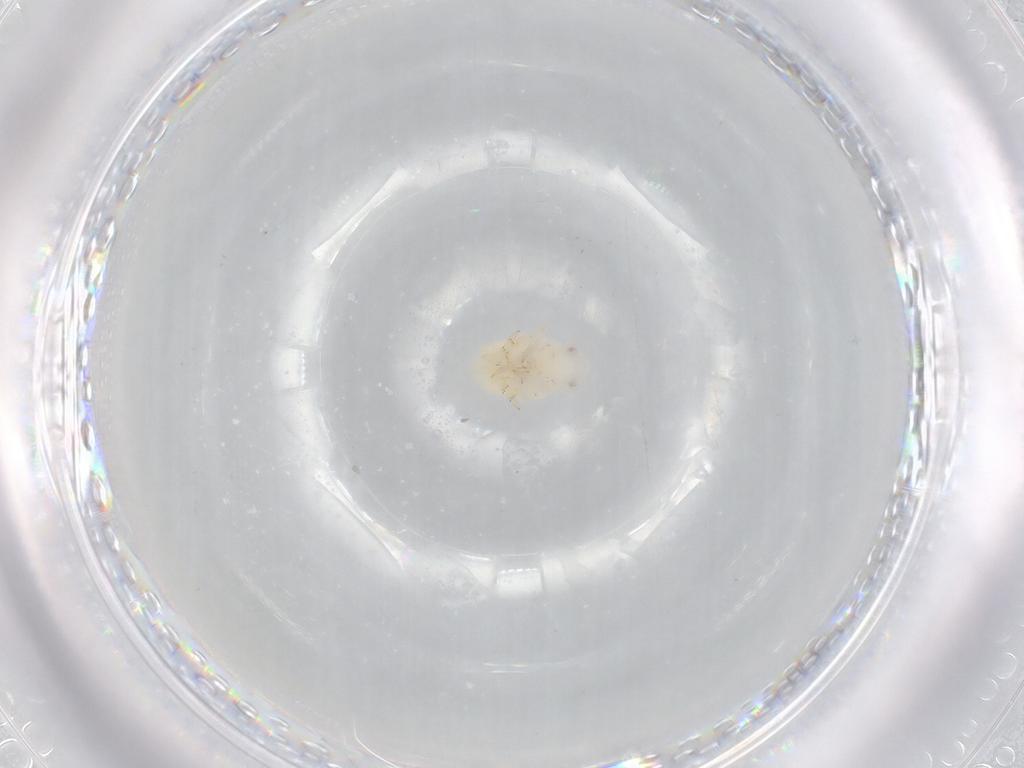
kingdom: Animalia
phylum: Arthropoda
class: Insecta
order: Hemiptera
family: Flatidae
